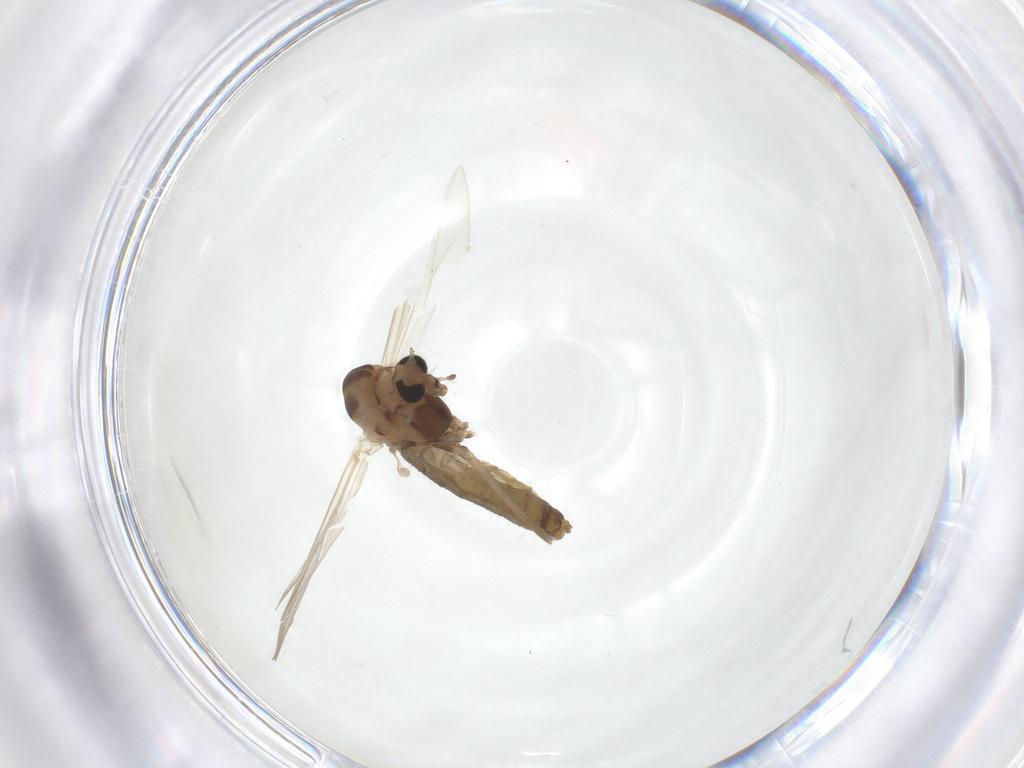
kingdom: Animalia
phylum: Arthropoda
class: Insecta
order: Diptera
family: Chironomidae
